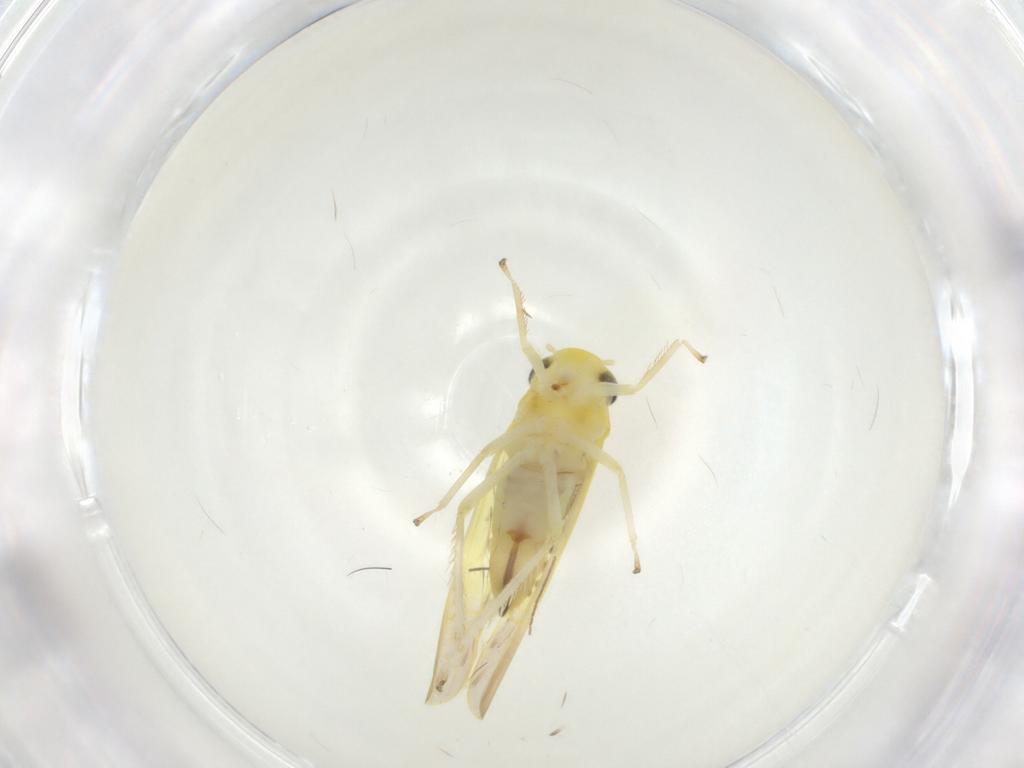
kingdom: Animalia
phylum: Arthropoda
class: Insecta
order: Hemiptera
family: Cicadellidae
